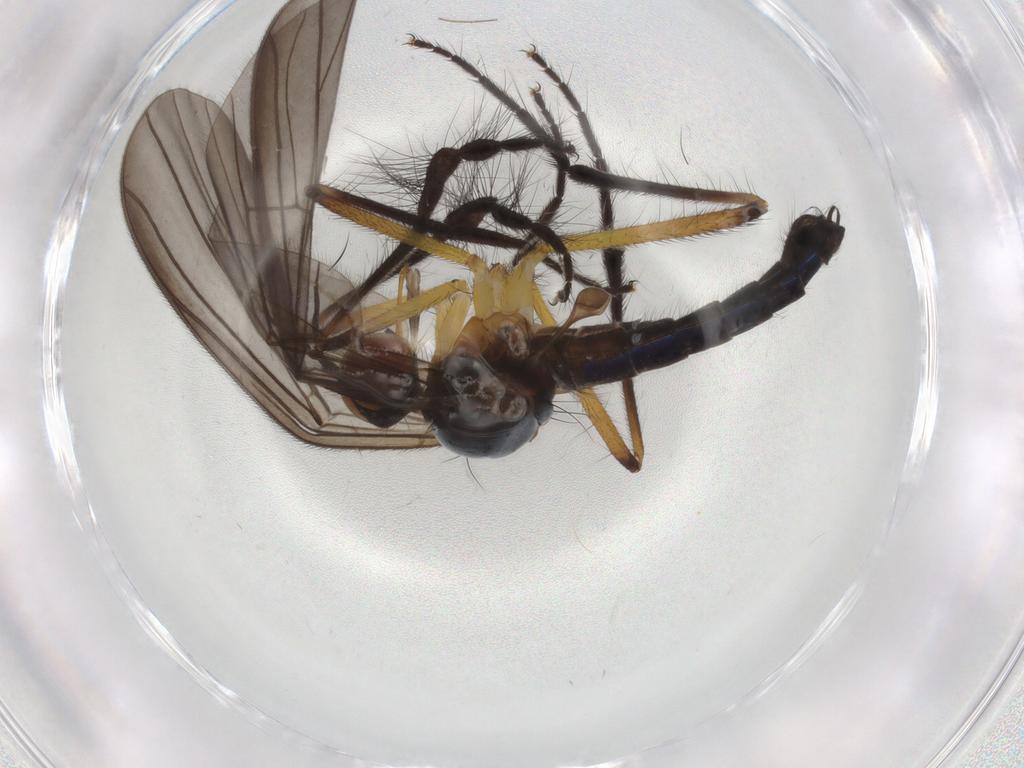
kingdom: Animalia
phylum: Arthropoda
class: Insecta
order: Diptera
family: Empididae
